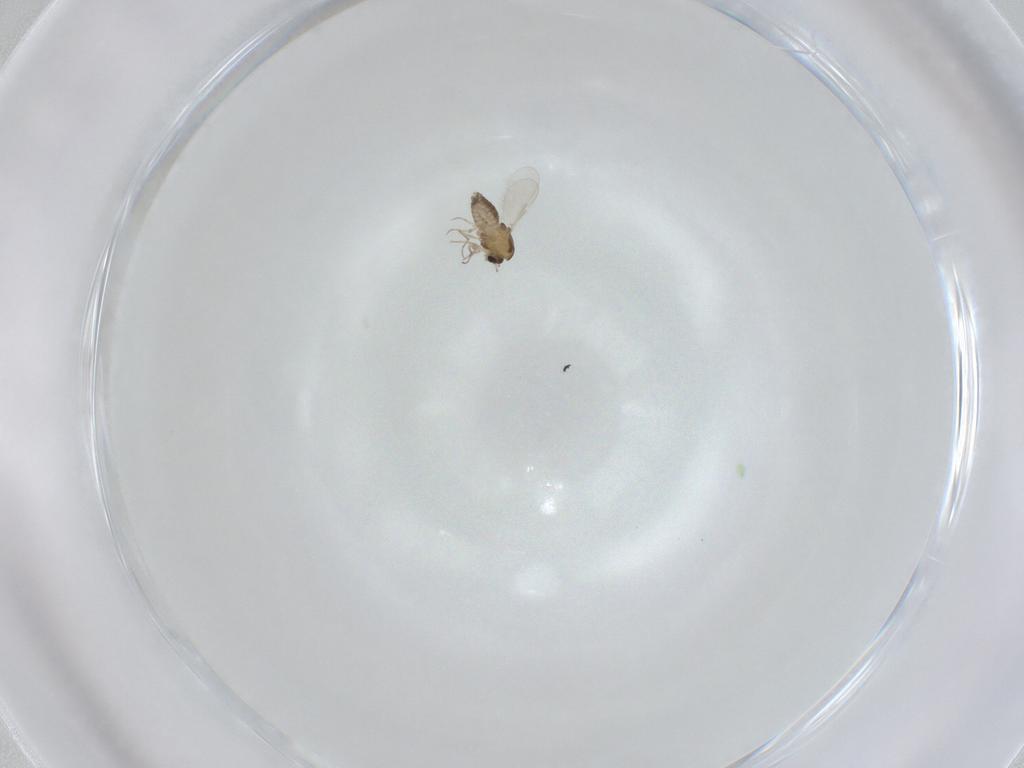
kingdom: Animalia
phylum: Arthropoda
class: Insecta
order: Diptera
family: Chironomidae
